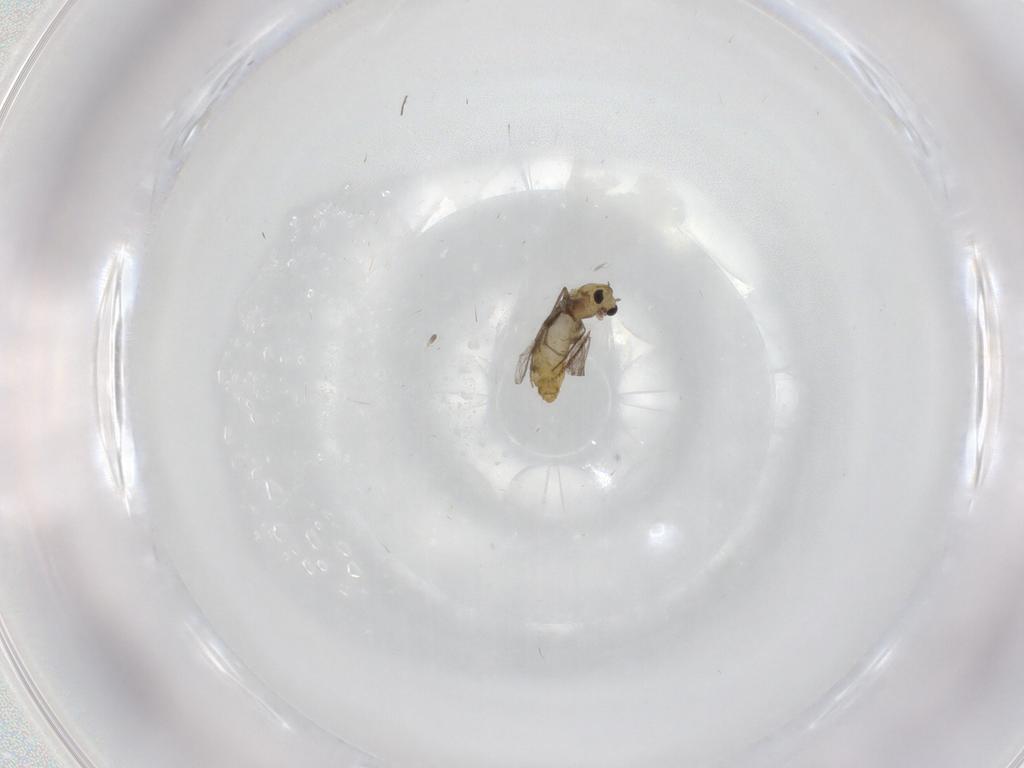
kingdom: Animalia
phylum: Arthropoda
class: Insecta
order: Diptera
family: Chironomidae
